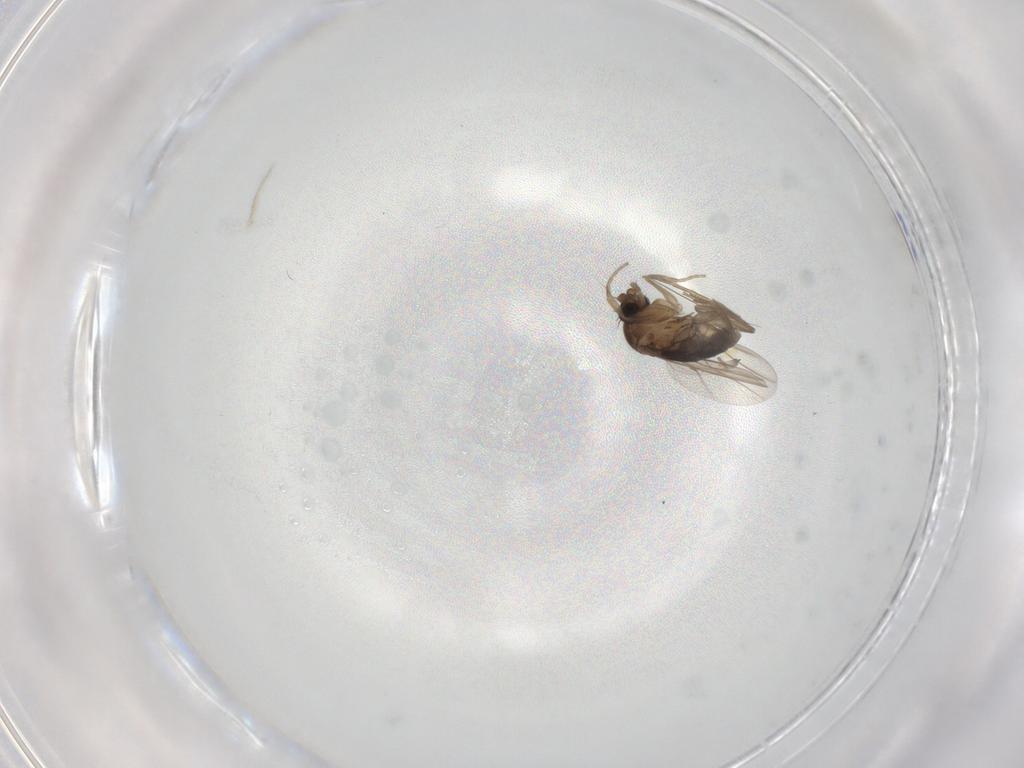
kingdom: Animalia
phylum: Arthropoda
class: Insecta
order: Diptera
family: Phoridae
